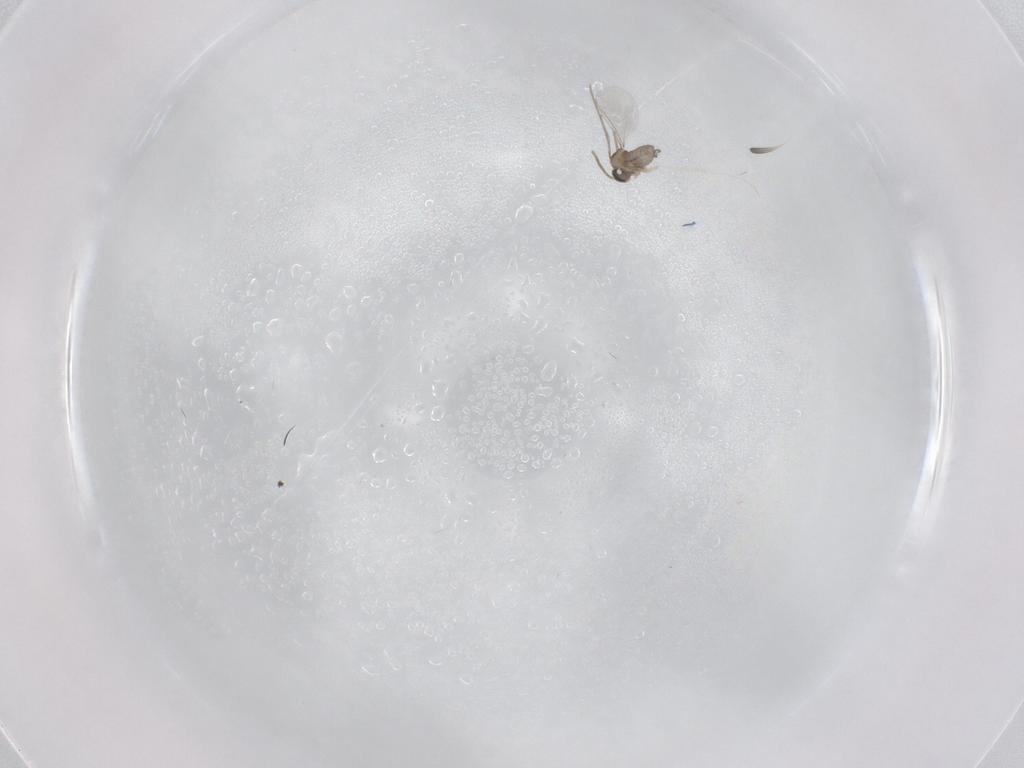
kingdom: Animalia
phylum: Arthropoda
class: Insecta
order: Diptera
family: Cecidomyiidae
